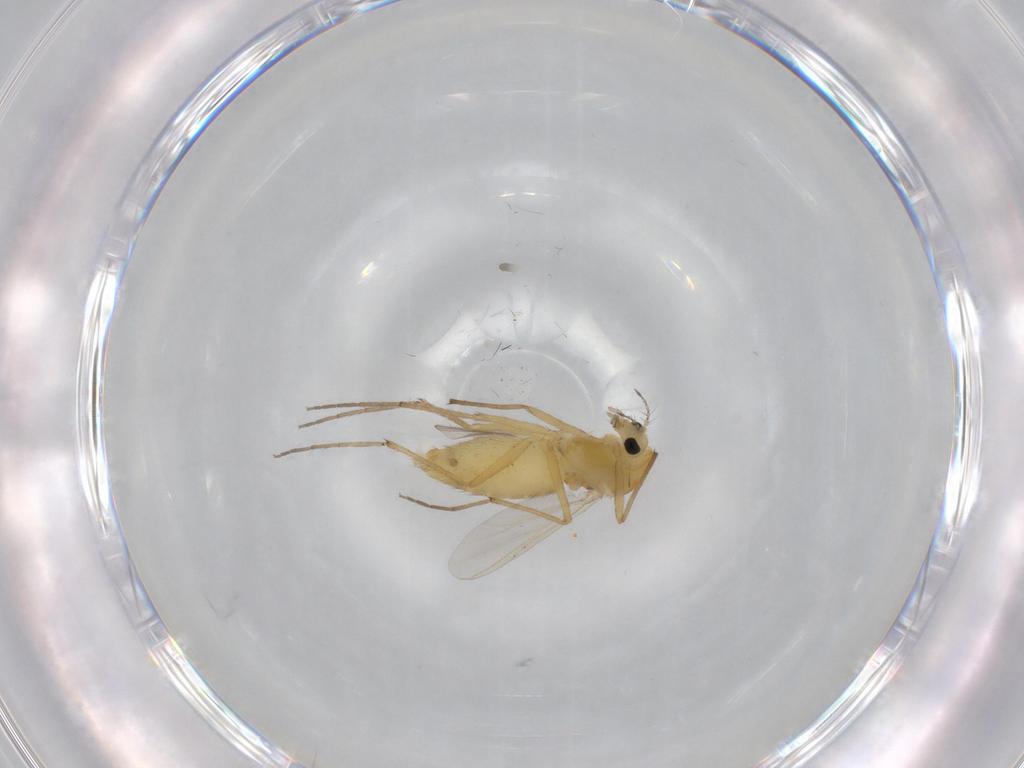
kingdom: Animalia
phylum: Arthropoda
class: Insecta
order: Diptera
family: Chironomidae
